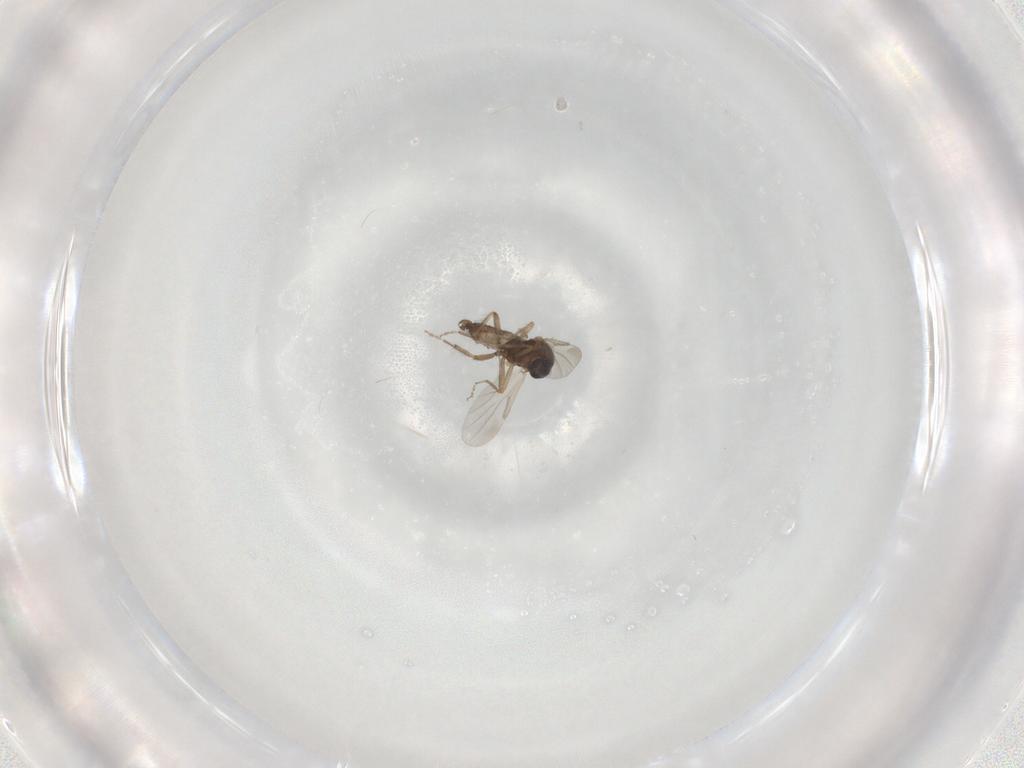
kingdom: Animalia
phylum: Arthropoda
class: Insecta
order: Diptera
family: Ceratopogonidae
